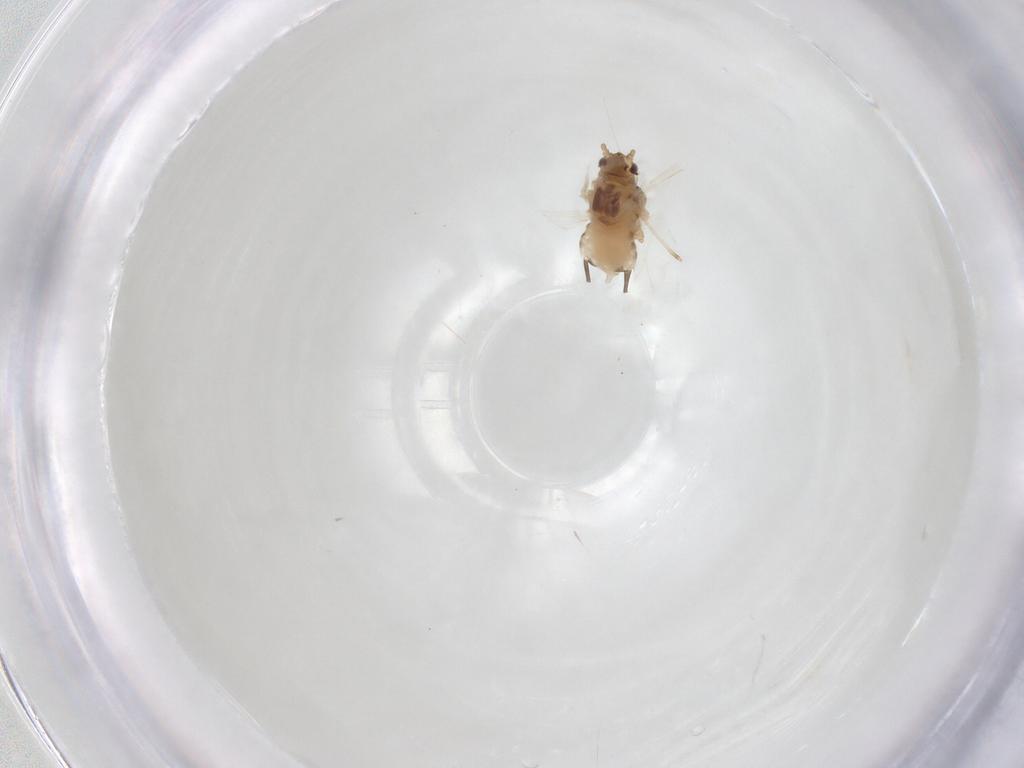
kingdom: Animalia
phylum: Arthropoda
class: Insecta
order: Hemiptera
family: Aphididae
